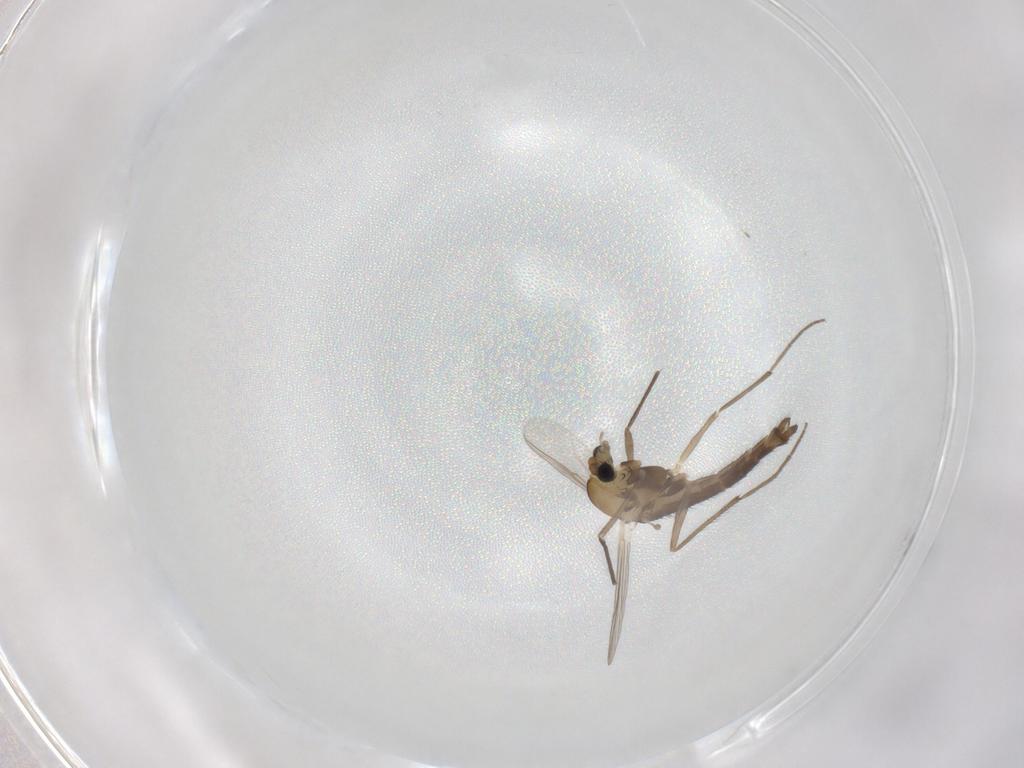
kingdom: Animalia
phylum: Arthropoda
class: Insecta
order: Diptera
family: Chironomidae
